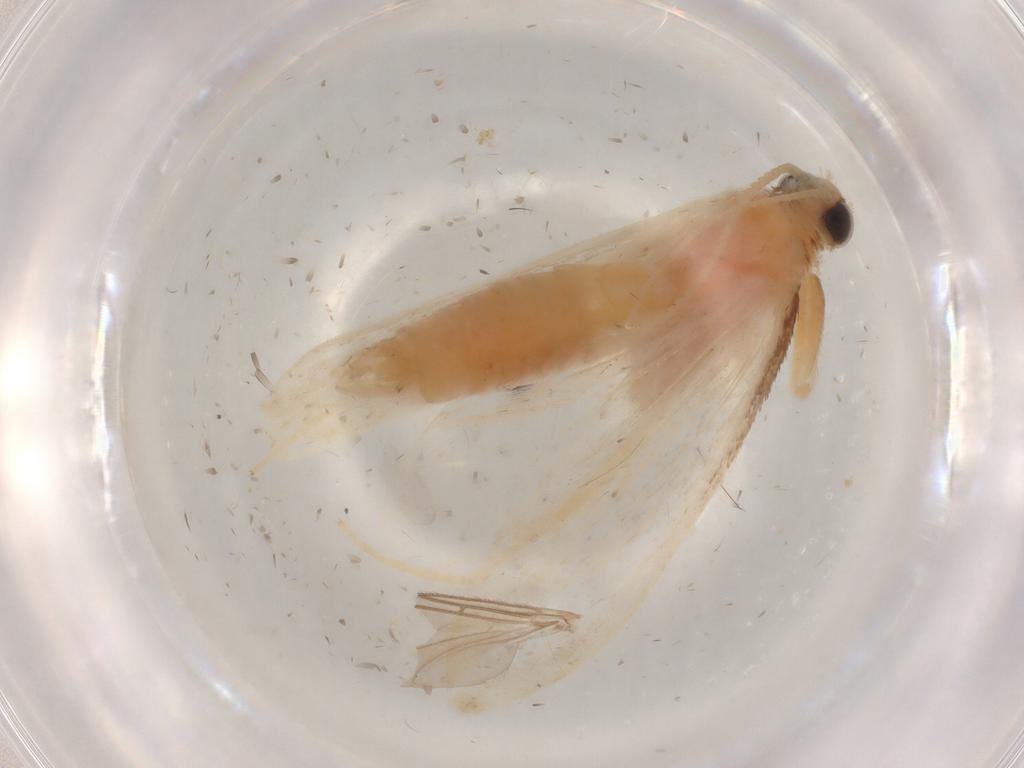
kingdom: Animalia
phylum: Arthropoda
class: Insecta
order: Lepidoptera
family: Crambidae
